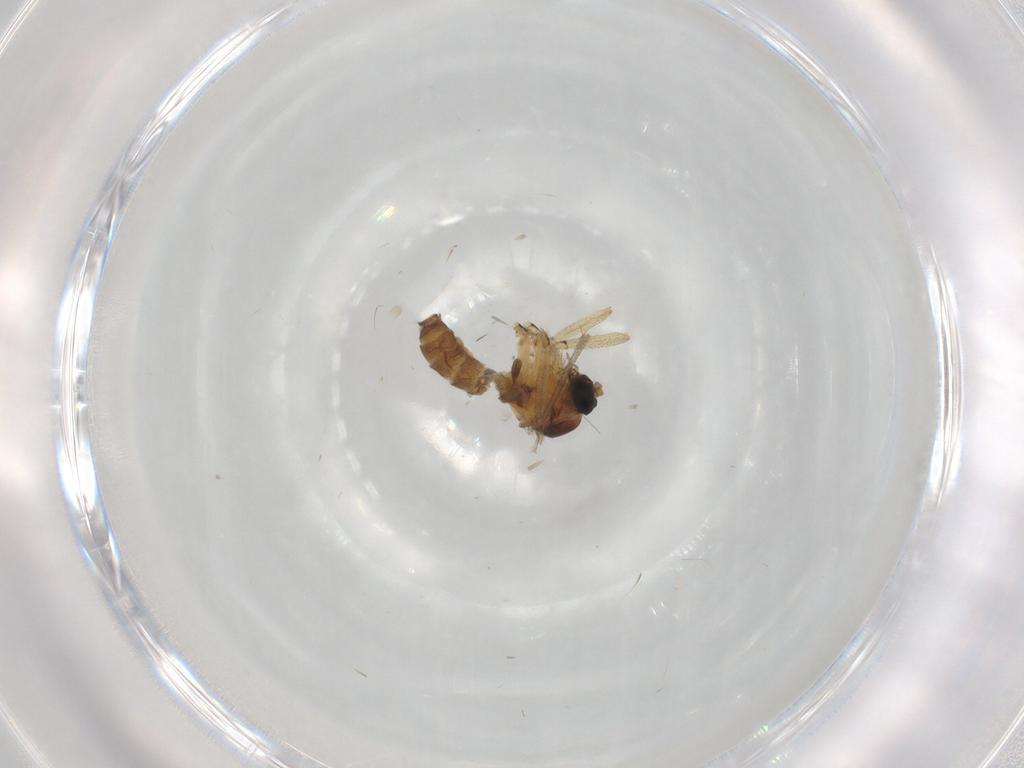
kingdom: Animalia
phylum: Arthropoda
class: Insecta
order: Diptera
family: Sciaridae
